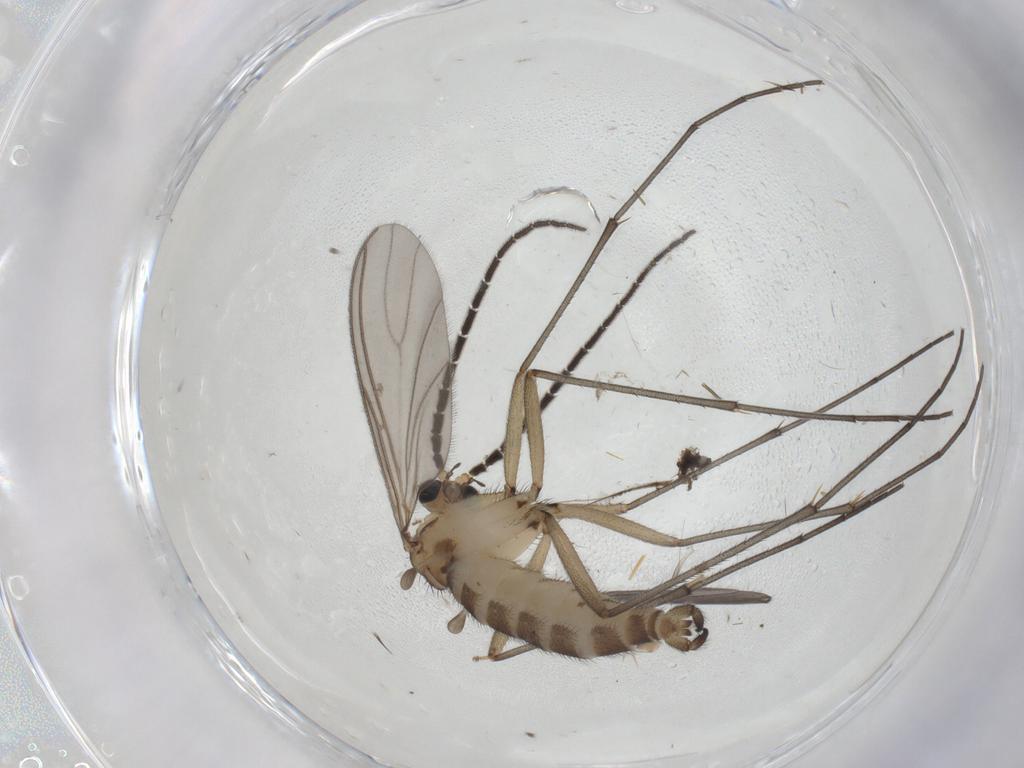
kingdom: Animalia
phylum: Arthropoda
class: Insecta
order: Diptera
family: Sciaridae
